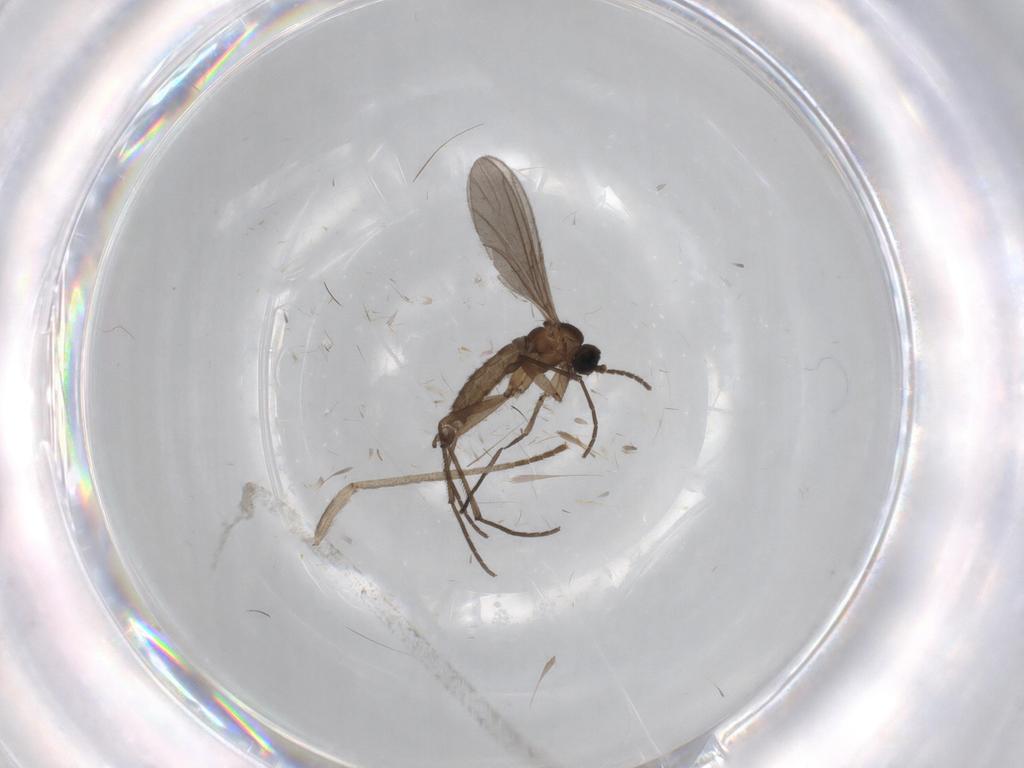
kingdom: Animalia
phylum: Arthropoda
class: Insecta
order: Diptera
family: Sciaridae
